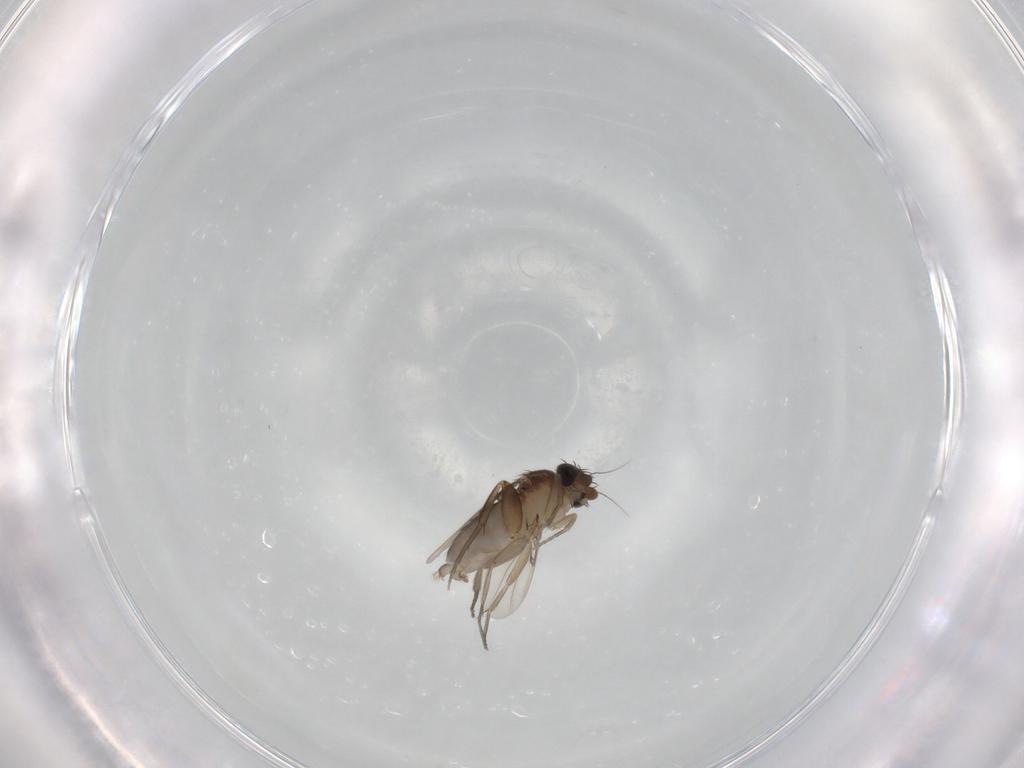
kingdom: Animalia
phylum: Arthropoda
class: Insecta
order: Diptera
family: Phoridae
